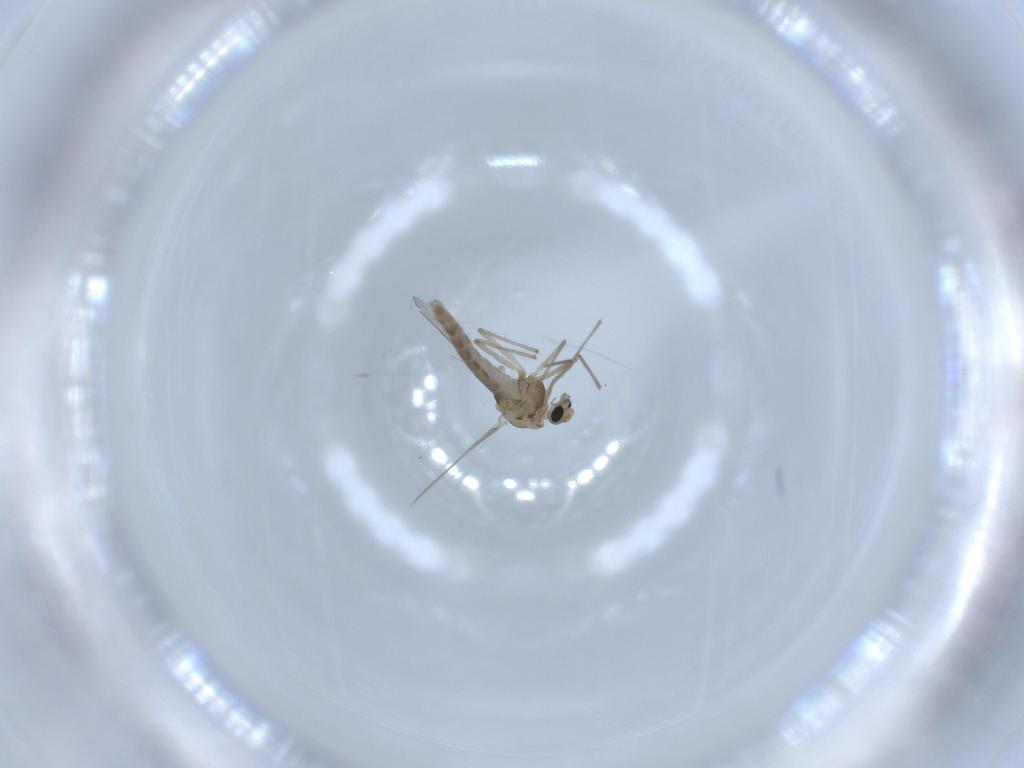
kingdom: Animalia
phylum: Arthropoda
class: Insecta
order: Diptera
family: Chironomidae
